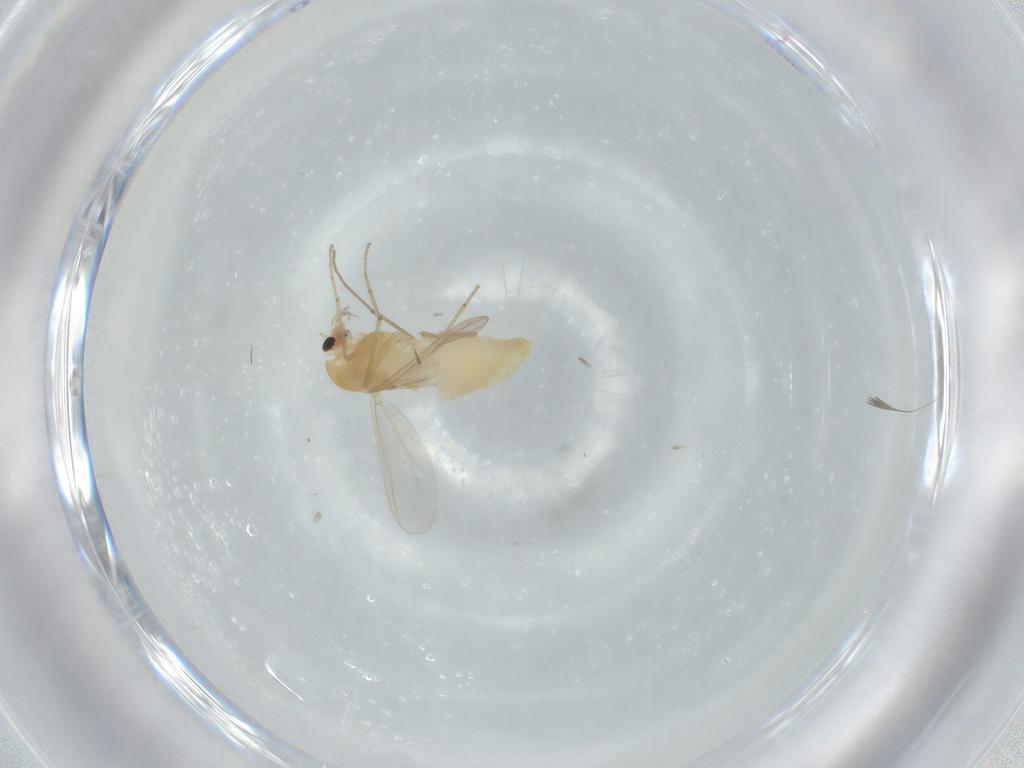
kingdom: Animalia
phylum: Arthropoda
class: Insecta
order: Diptera
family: Chironomidae
